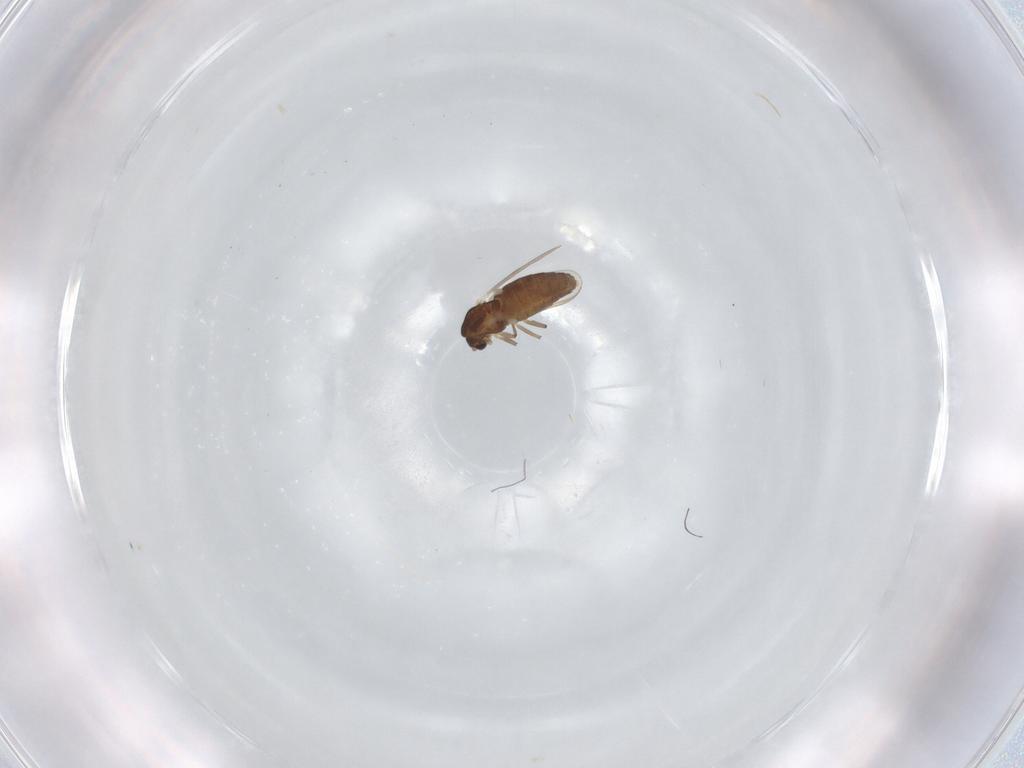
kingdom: Animalia
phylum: Arthropoda
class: Insecta
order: Diptera
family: Chironomidae
